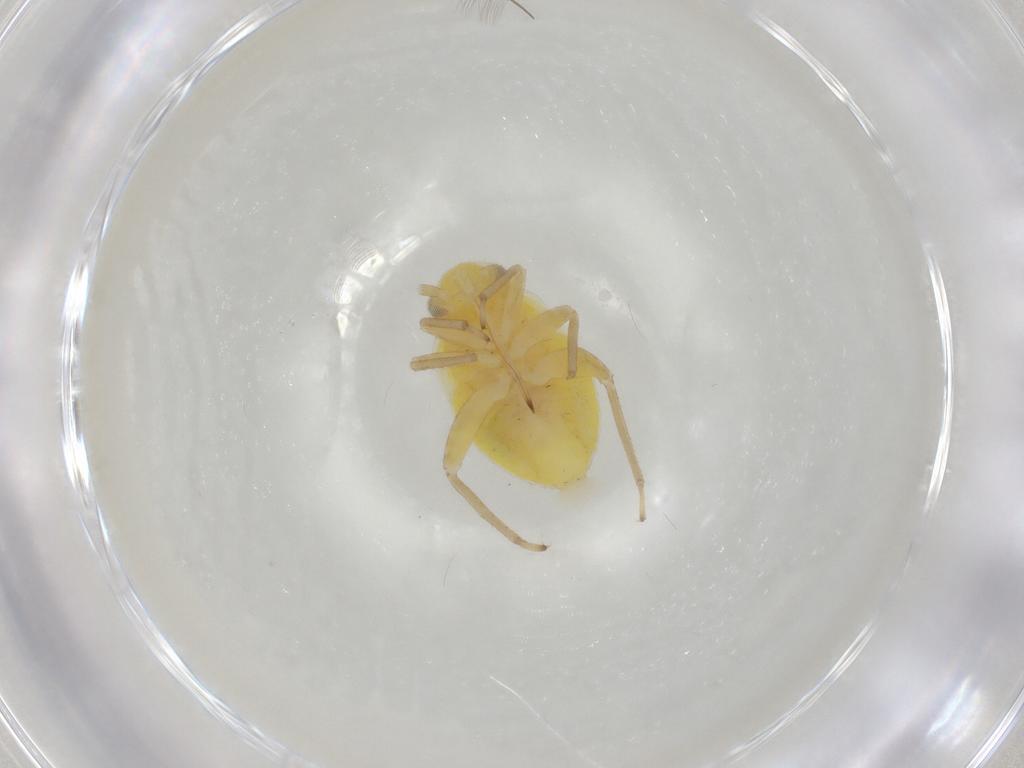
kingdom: Animalia
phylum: Arthropoda
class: Insecta
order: Hemiptera
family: Miridae
